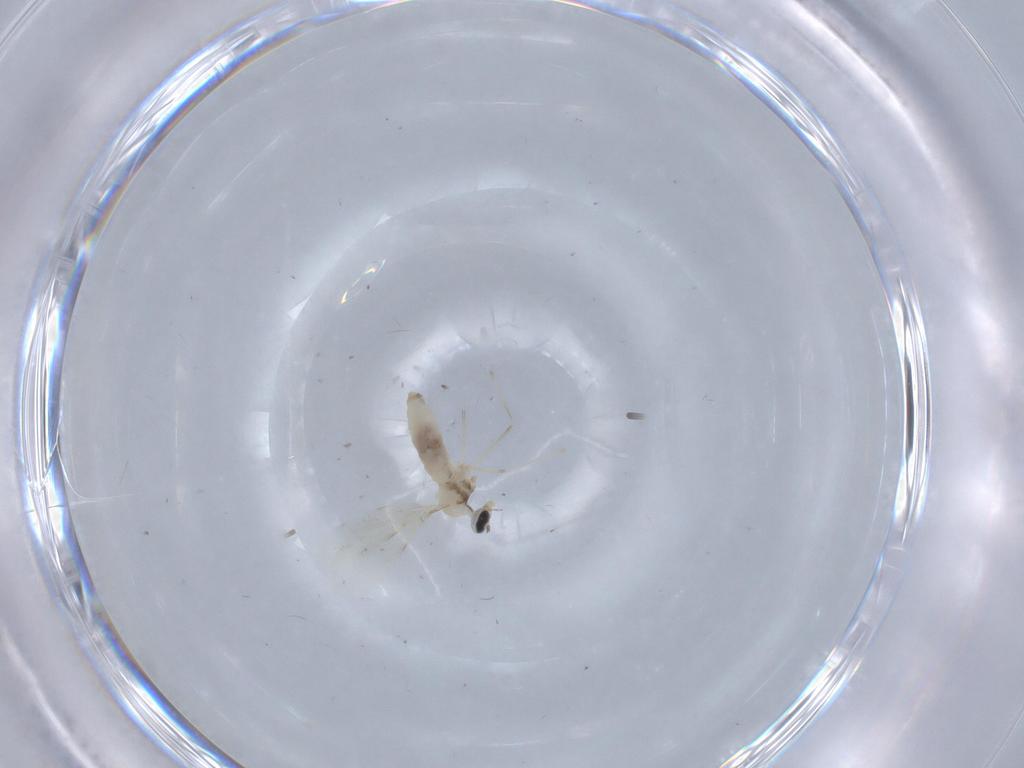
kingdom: Animalia
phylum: Arthropoda
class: Insecta
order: Diptera
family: Cecidomyiidae
